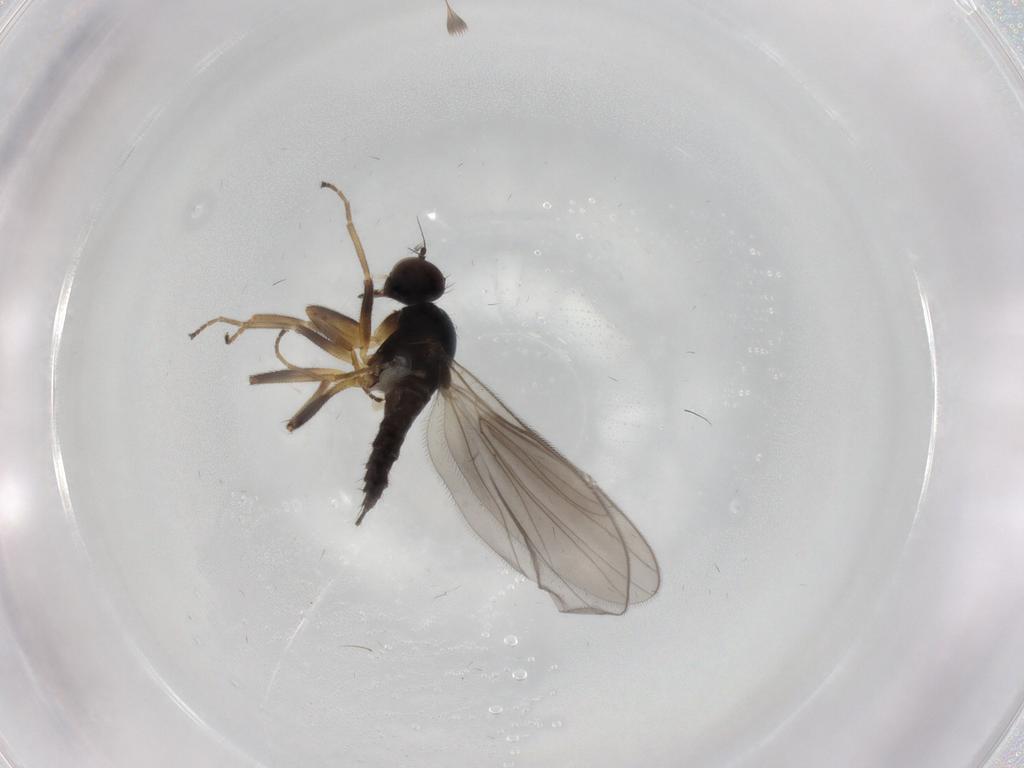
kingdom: Animalia
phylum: Arthropoda
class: Insecta
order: Diptera
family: Hybotidae
